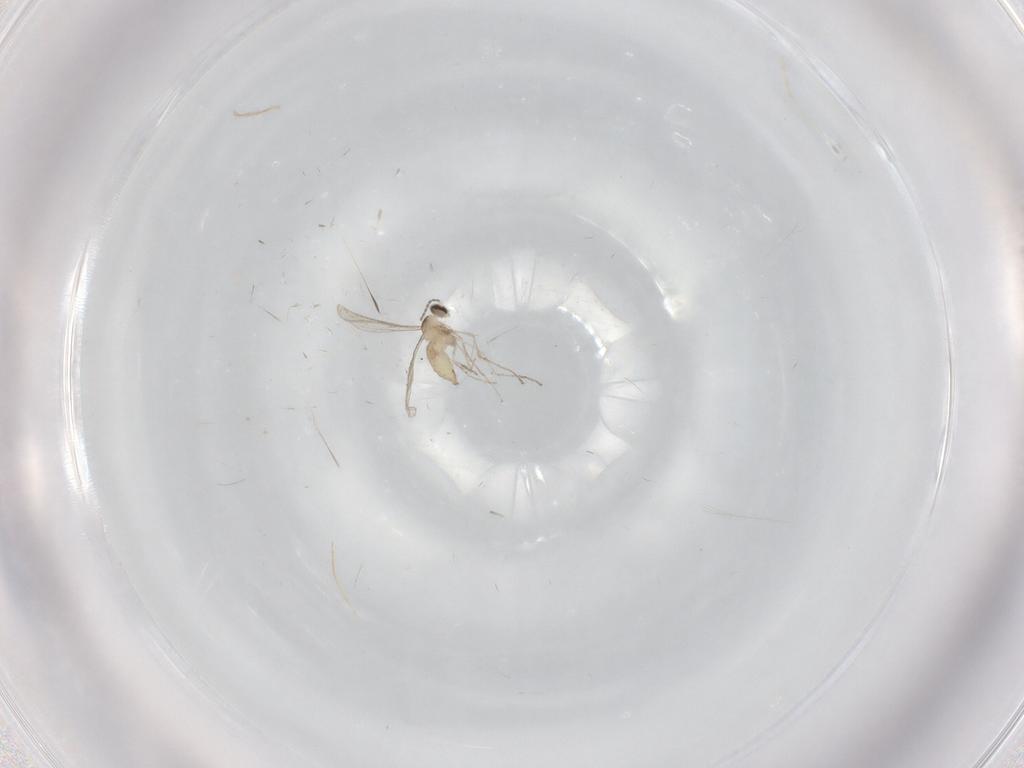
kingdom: Animalia
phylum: Arthropoda
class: Insecta
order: Diptera
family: Cecidomyiidae
